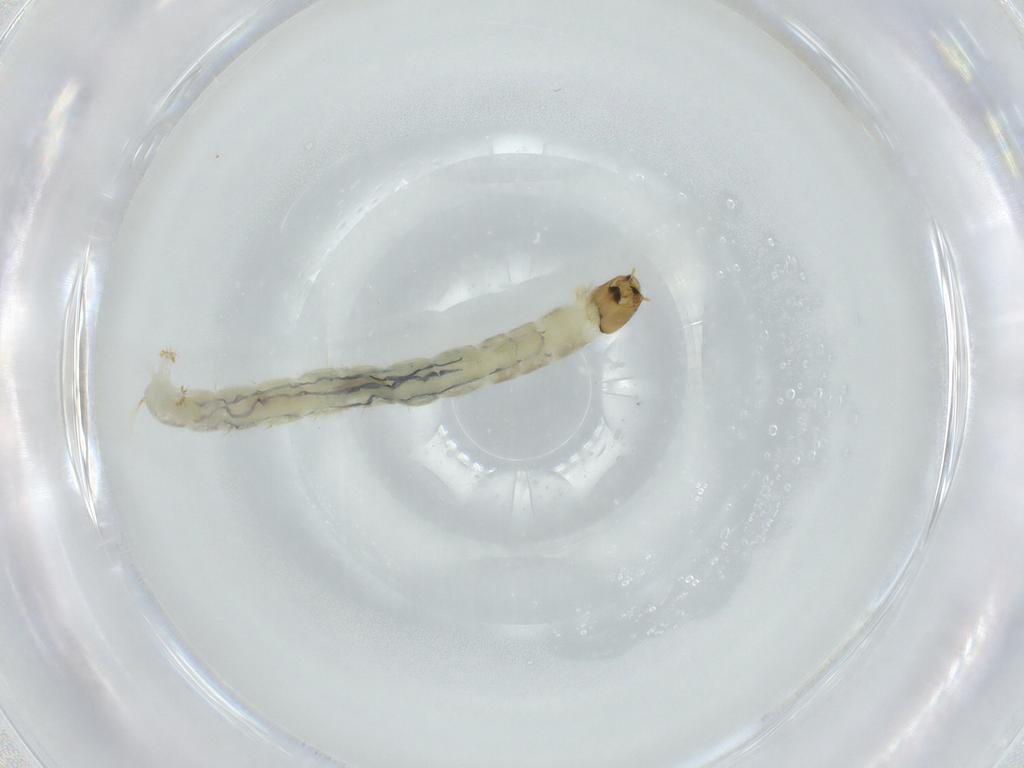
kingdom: Animalia
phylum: Arthropoda
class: Insecta
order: Diptera
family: Chironomidae
